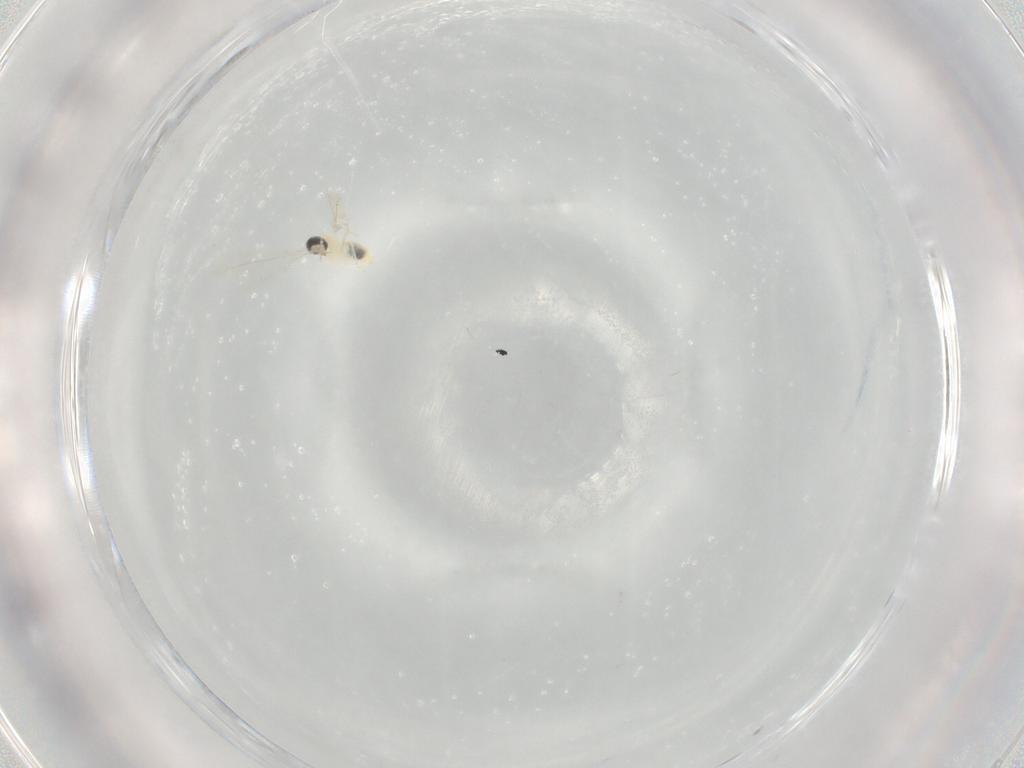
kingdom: Animalia
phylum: Arthropoda
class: Insecta
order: Diptera
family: Cecidomyiidae
